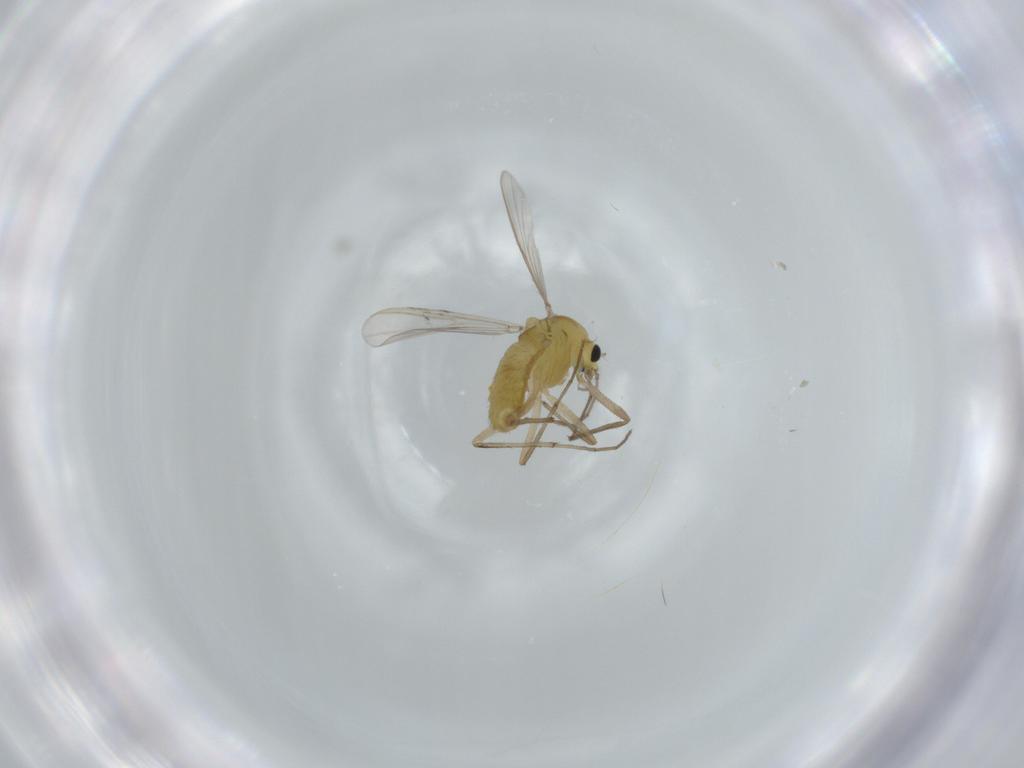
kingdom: Animalia
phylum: Arthropoda
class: Insecta
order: Diptera
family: Chironomidae
